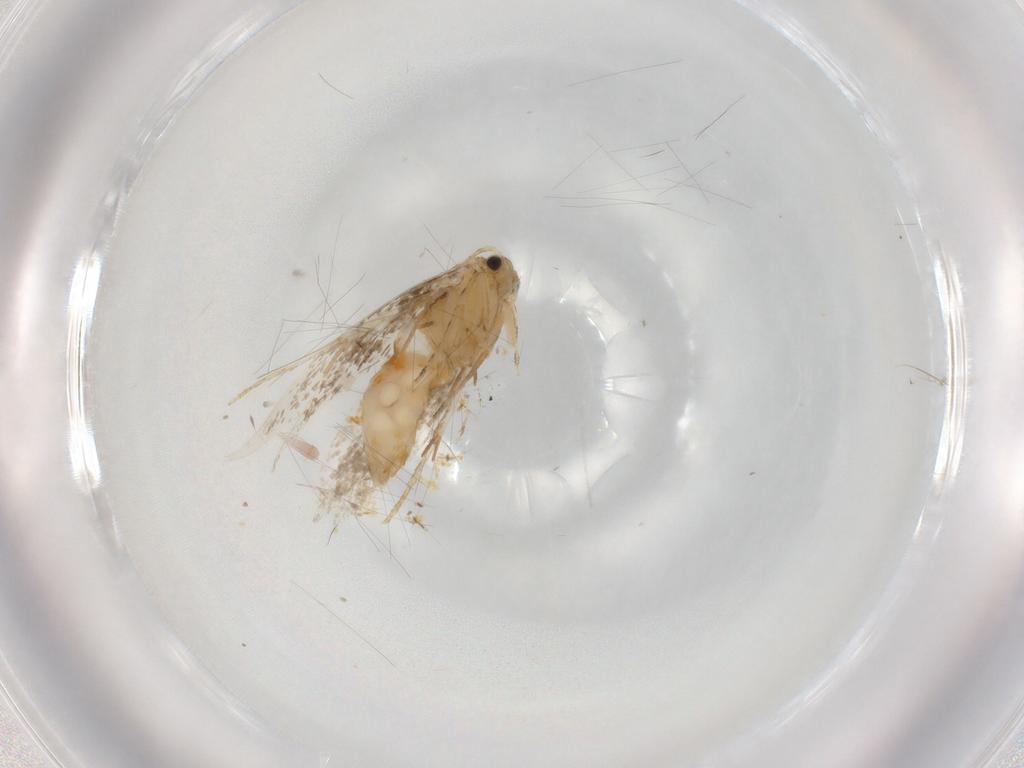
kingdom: Animalia
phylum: Arthropoda
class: Insecta
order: Lepidoptera
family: Incurvariidae
